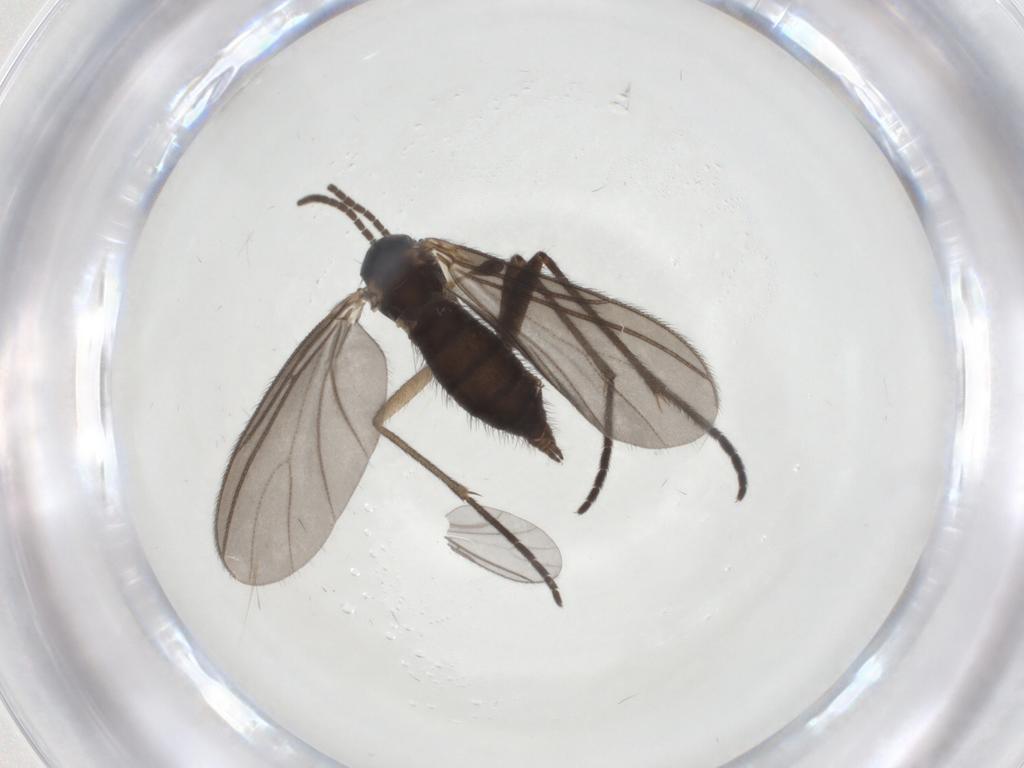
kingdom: Animalia
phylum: Arthropoda
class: Insecta
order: Diptera
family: Sciaridae
